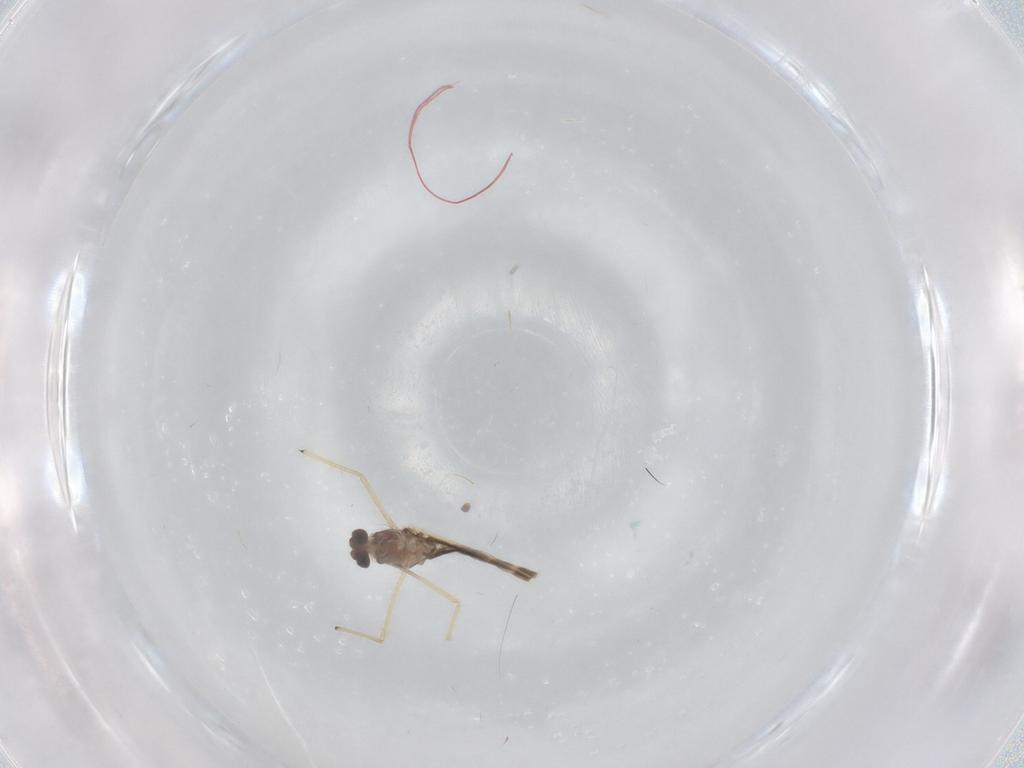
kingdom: Animalia
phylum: Arthropoda
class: Insecta
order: Diptera
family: Chironomidae
